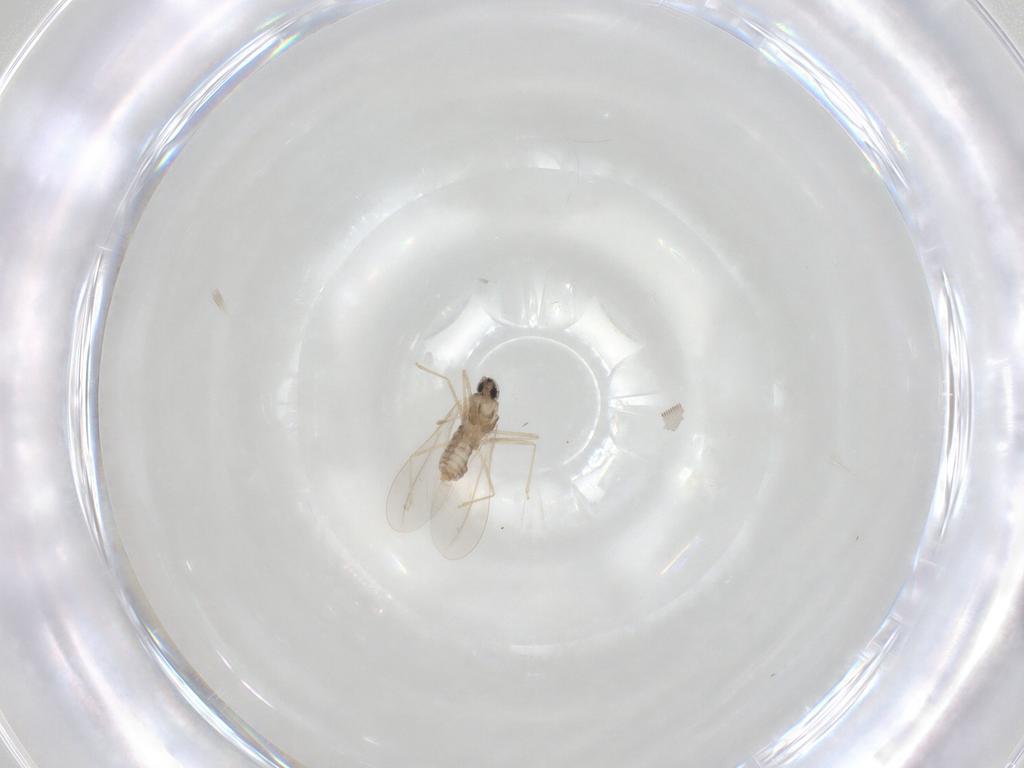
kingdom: Animalia
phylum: Arthropoda
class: Insecta
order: Diptera
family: Cecidomyiidae
